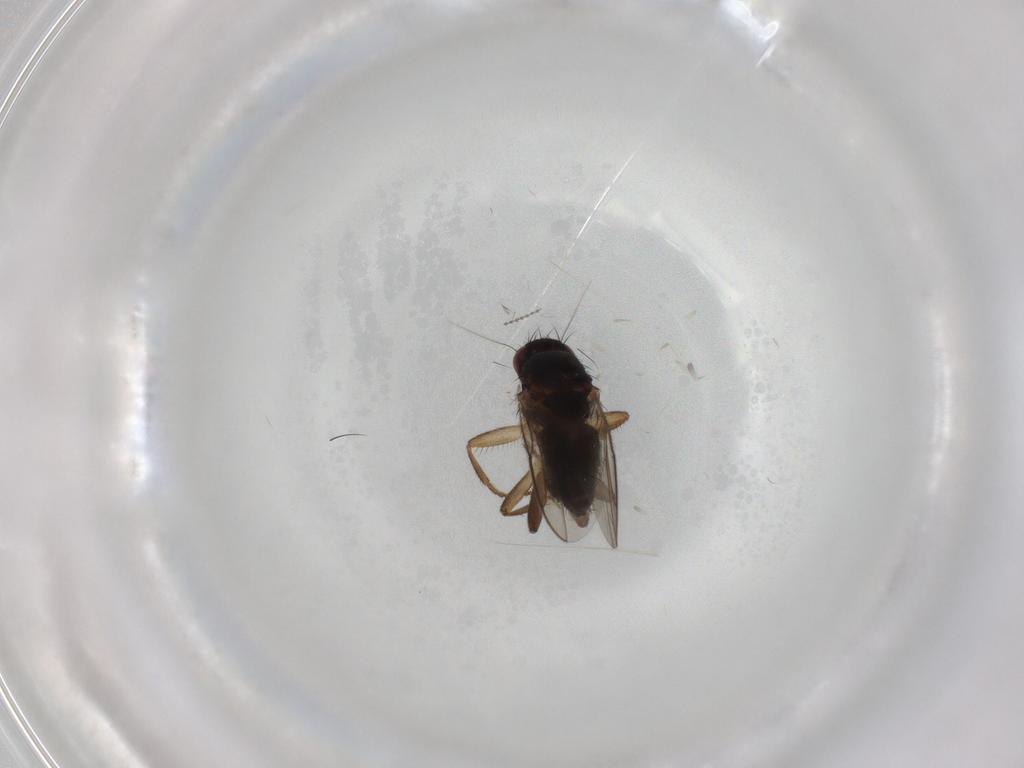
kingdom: Animalia
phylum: Arthropoda
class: Insecta
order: Diptera
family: Sphaeroceridae
